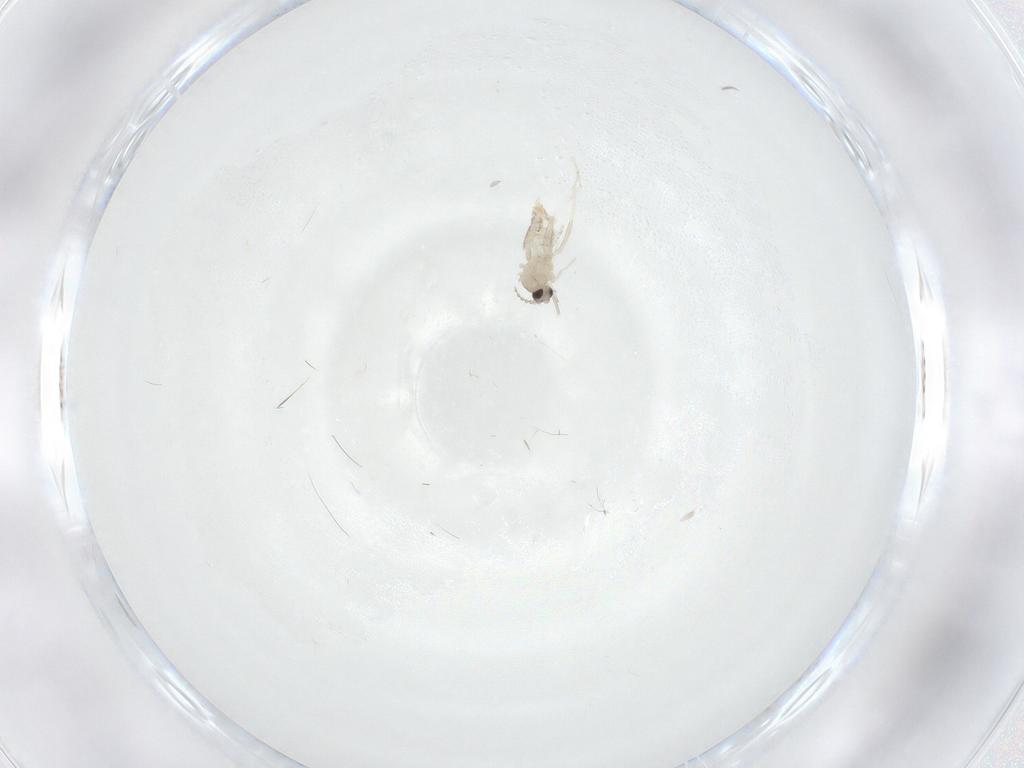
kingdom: Animalia
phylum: Arthropoda
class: Insecta
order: Diptera
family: Cecidomyiidae
